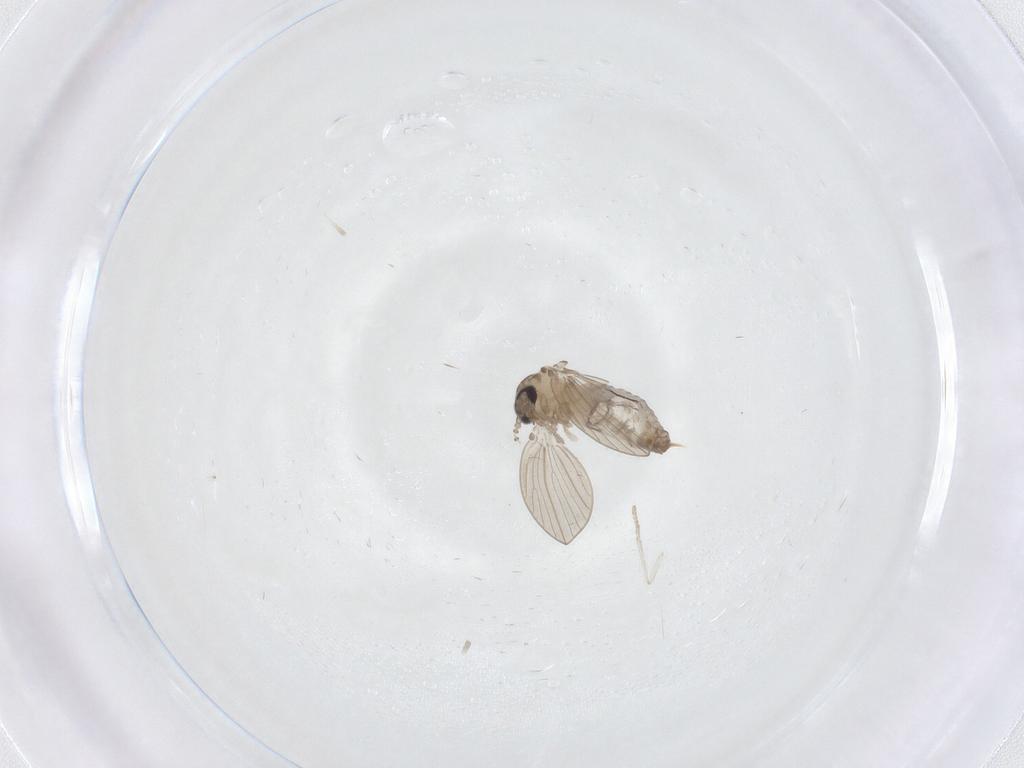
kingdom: Animalia
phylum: Arthropoda
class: Insecta
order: Diptera
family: Psychodidae
